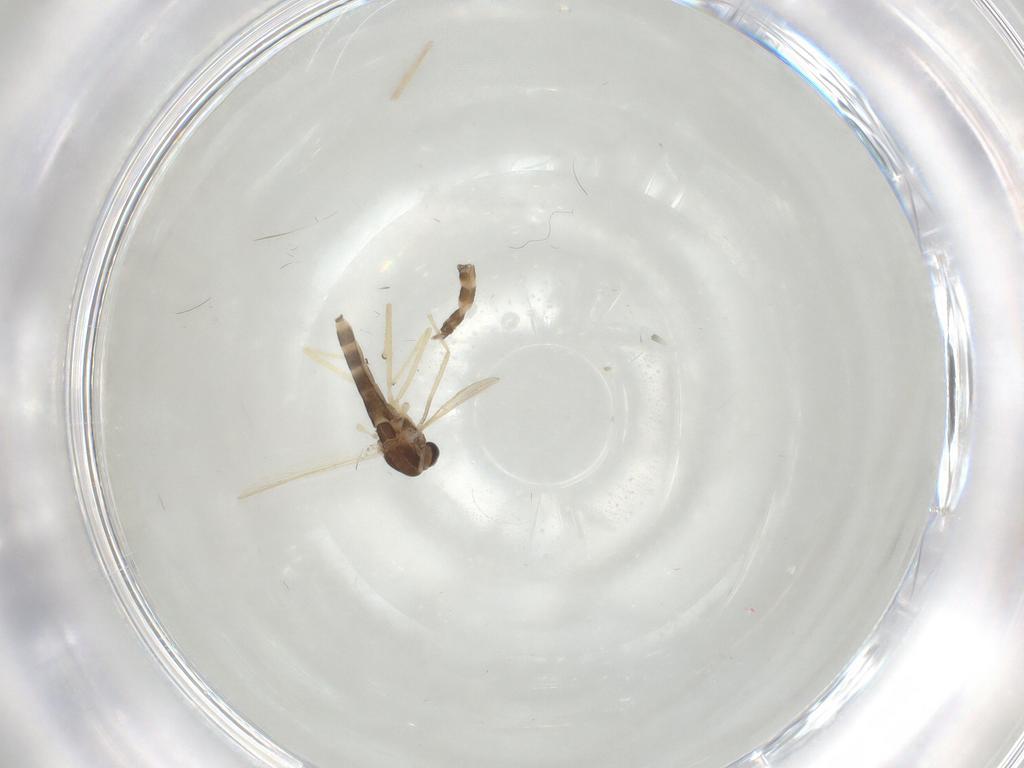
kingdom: Animalia
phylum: Arthropoda
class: Insecta
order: Diptera
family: Chironomidae
